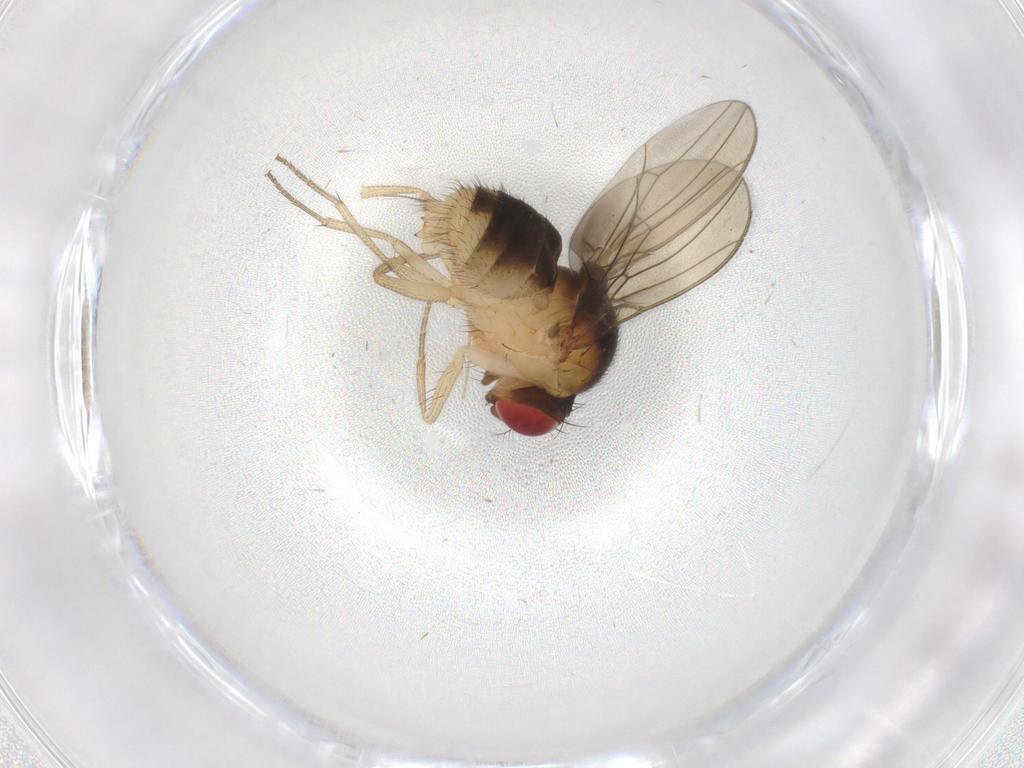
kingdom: Animalia
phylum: Arthropoda
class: Insecta
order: Diptera
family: Drosophilidae
